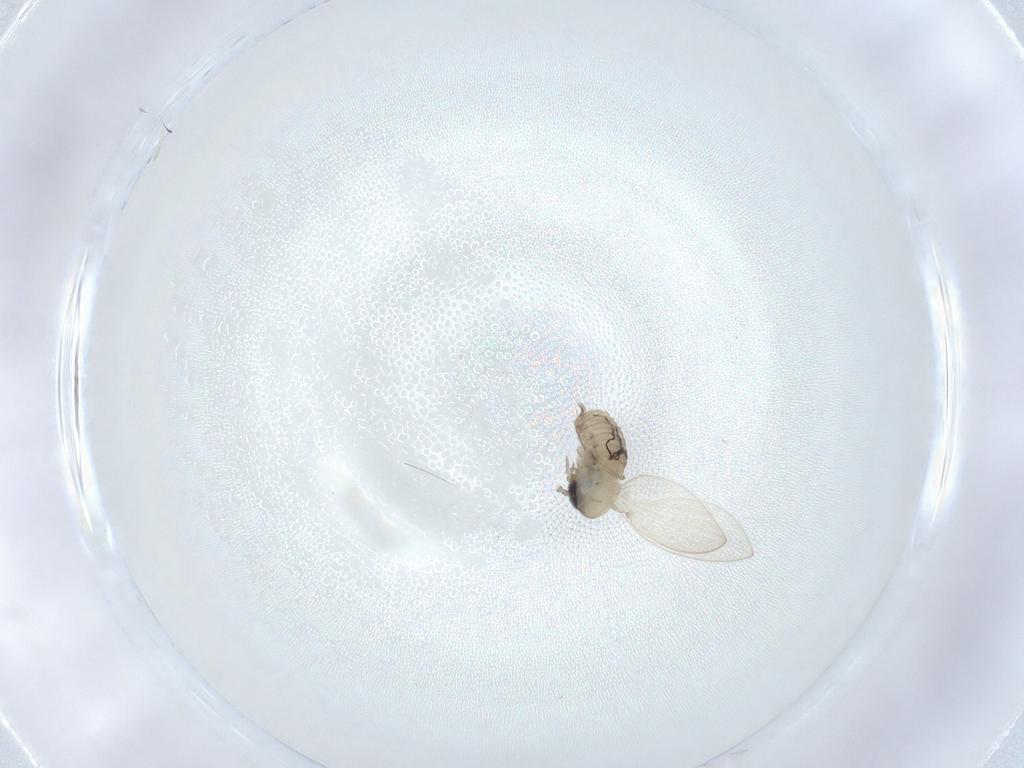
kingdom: Animalia
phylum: Arthropoda
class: Insecta
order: Diptera
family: Psychodidae
